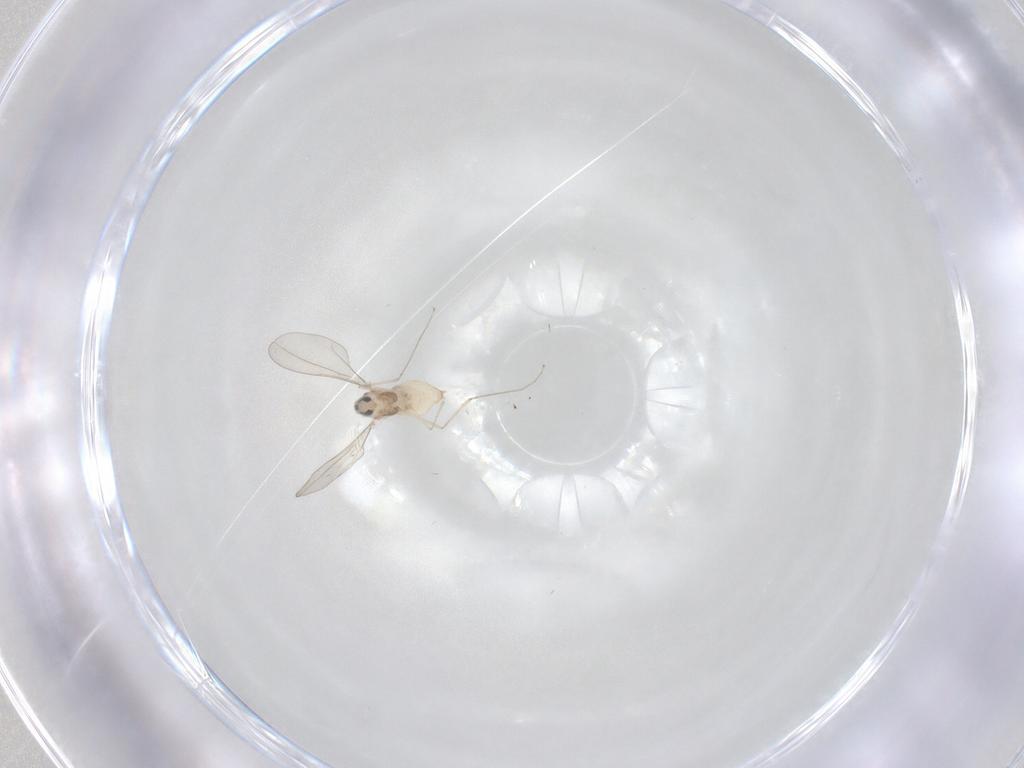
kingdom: Animalia
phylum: Arthropoda
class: Insecta
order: Diptera
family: Cecidomyiidae
